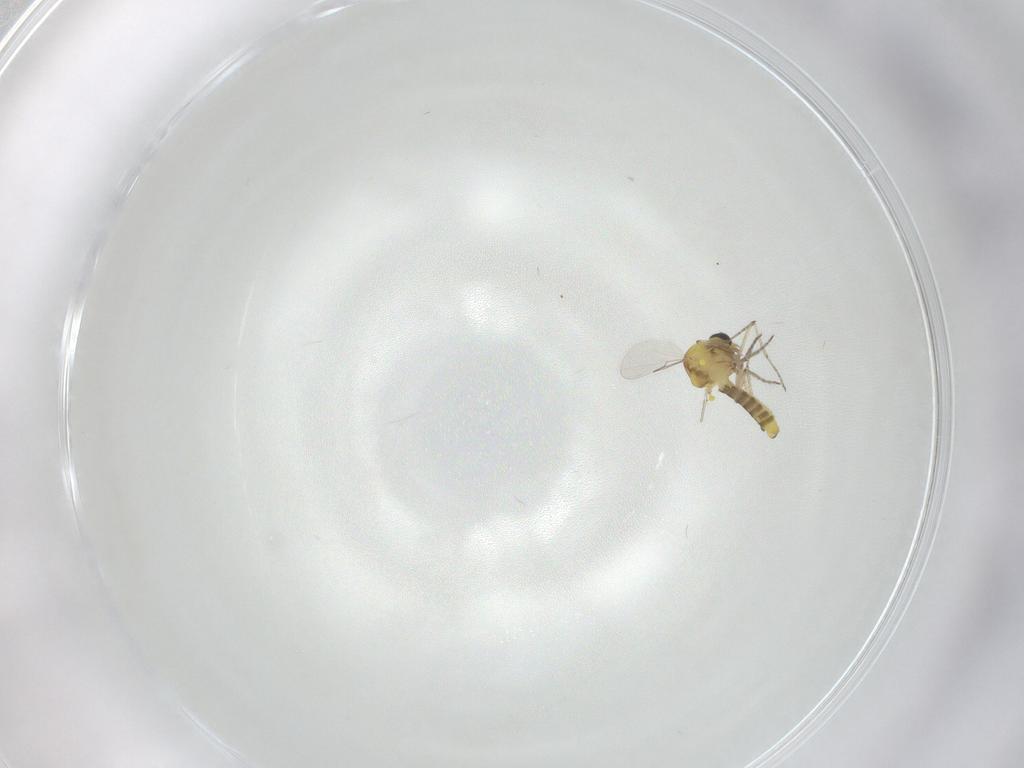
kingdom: Animalia
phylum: Arthropoda
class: Insecta
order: Diptera
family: Ceratopogonidae
